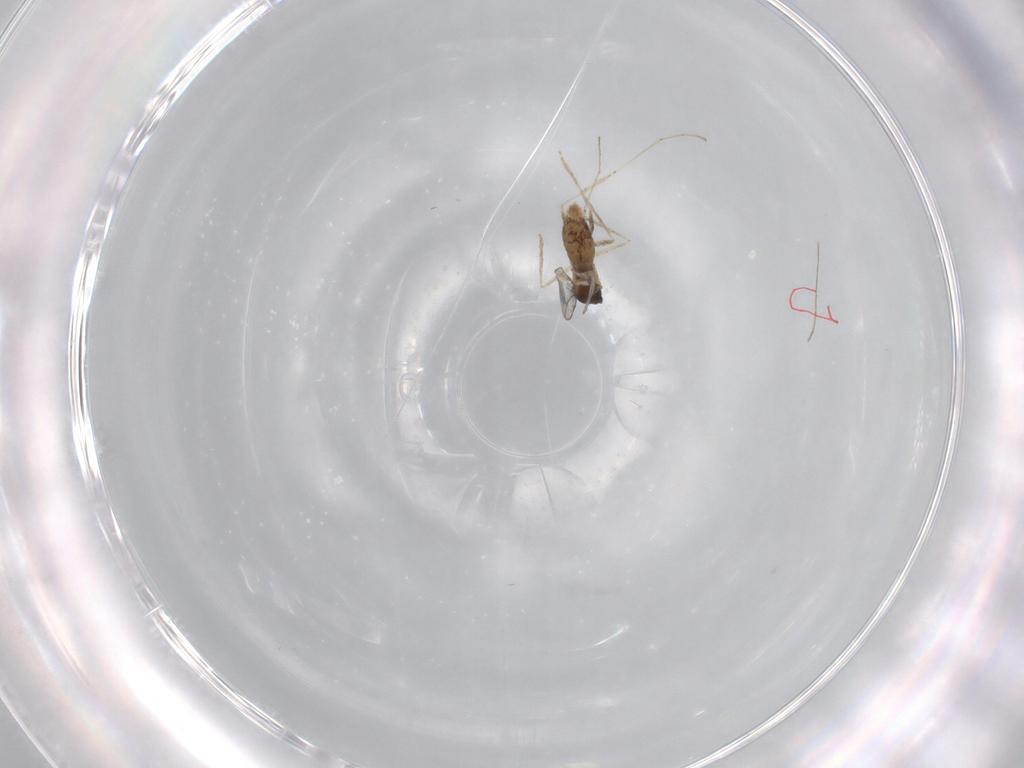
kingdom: Animalia
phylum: Arthropoda
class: Insecta
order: Diptera
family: Cecidomyiidae
